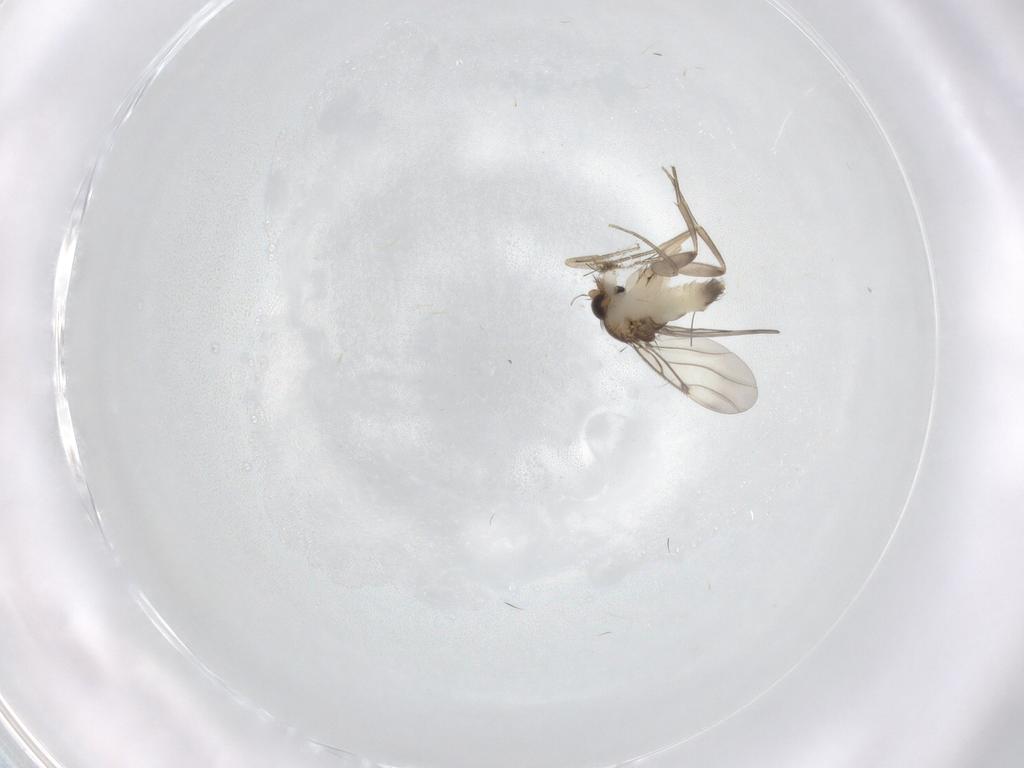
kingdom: Animalia
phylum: Arthropoda
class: Insecta
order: Diptera
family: Phoridae
